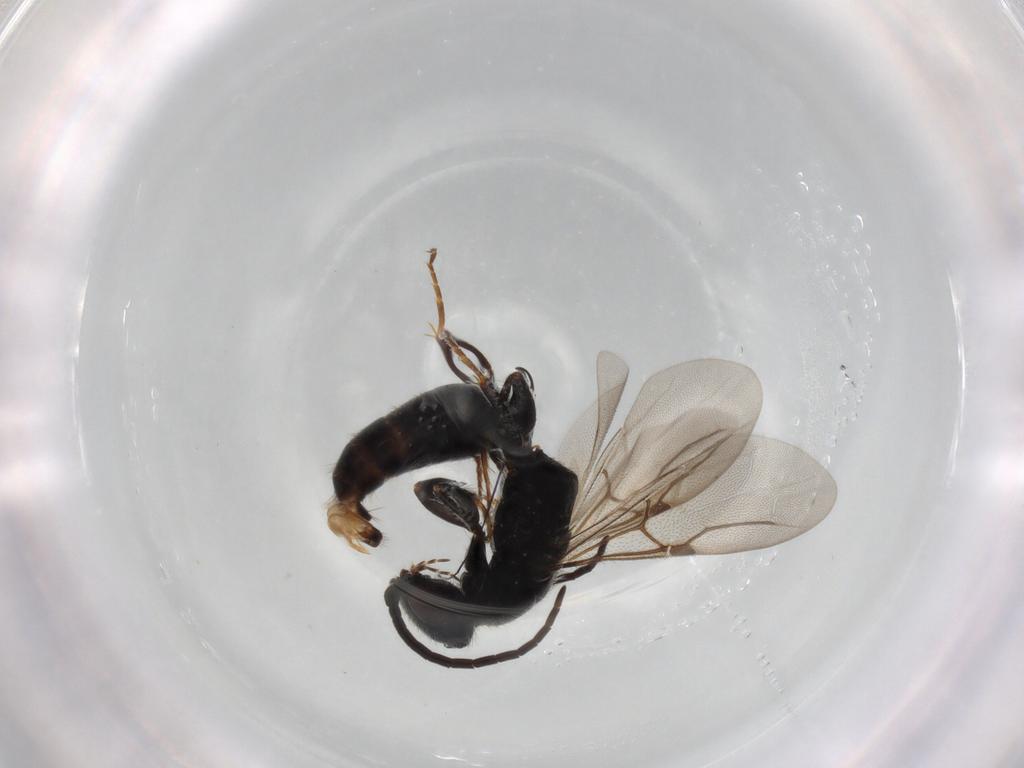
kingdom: Animalia
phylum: Arthropoda
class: Insecta
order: Hymenoptera
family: Bethylidae
